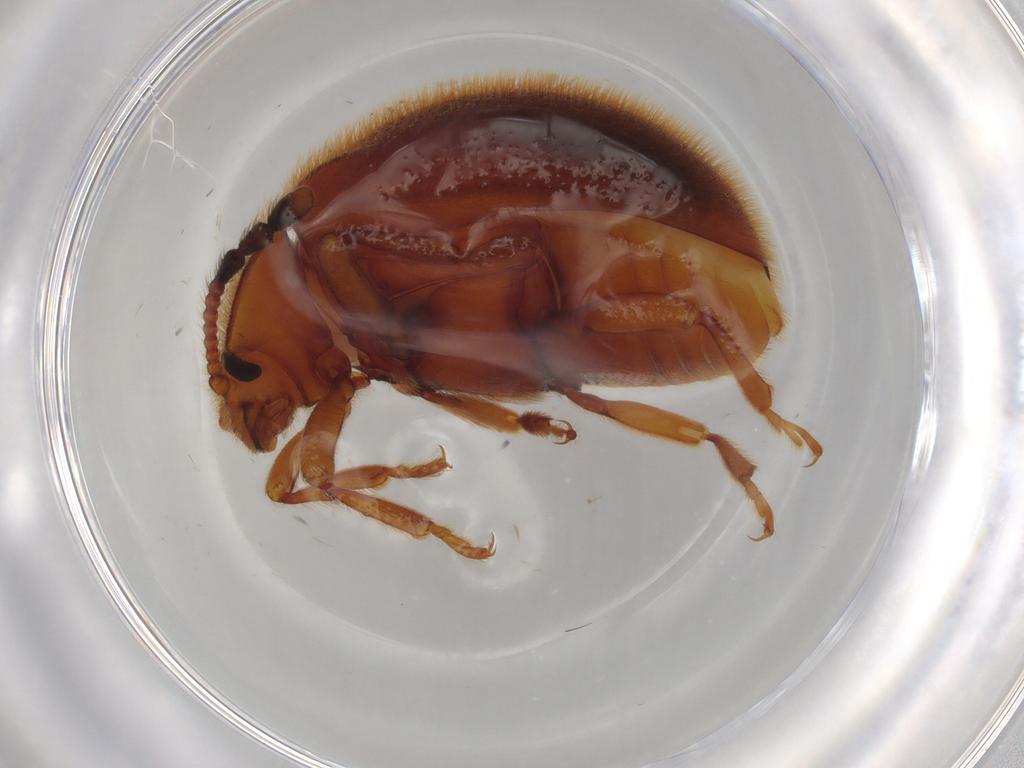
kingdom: Animalia
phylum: Arthropoda
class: Insecta
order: Coleoptera
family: Endomychidae
